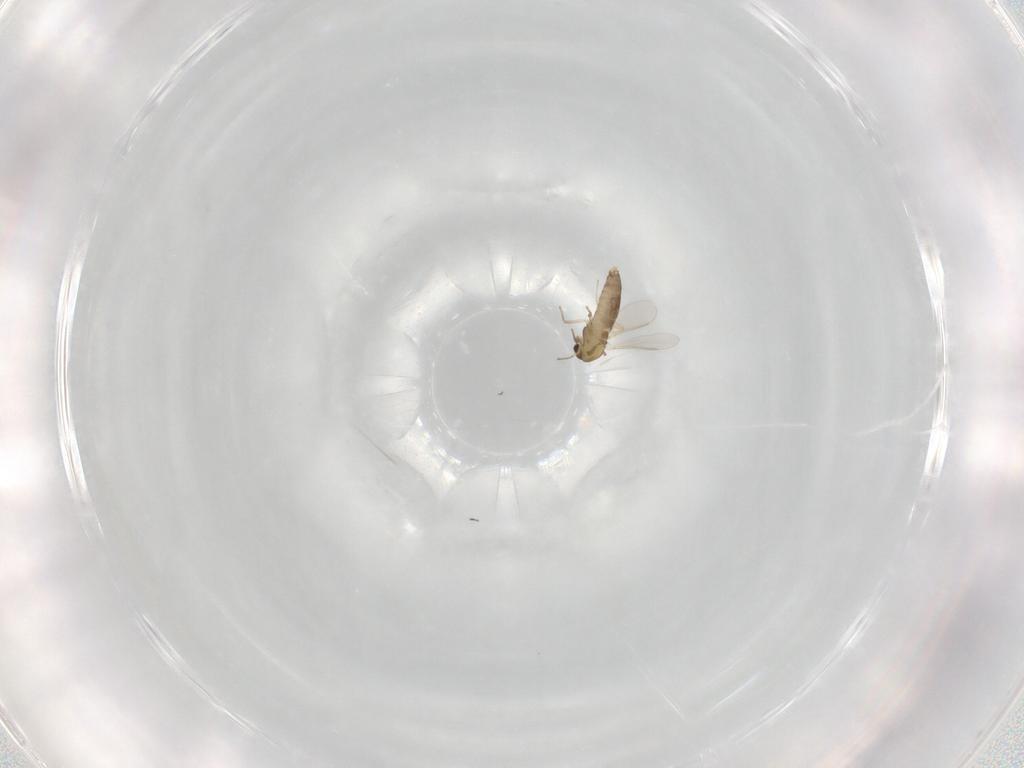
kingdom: Animalia
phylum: Arthropoda
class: Insecta
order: Diptera
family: Chironomidae
